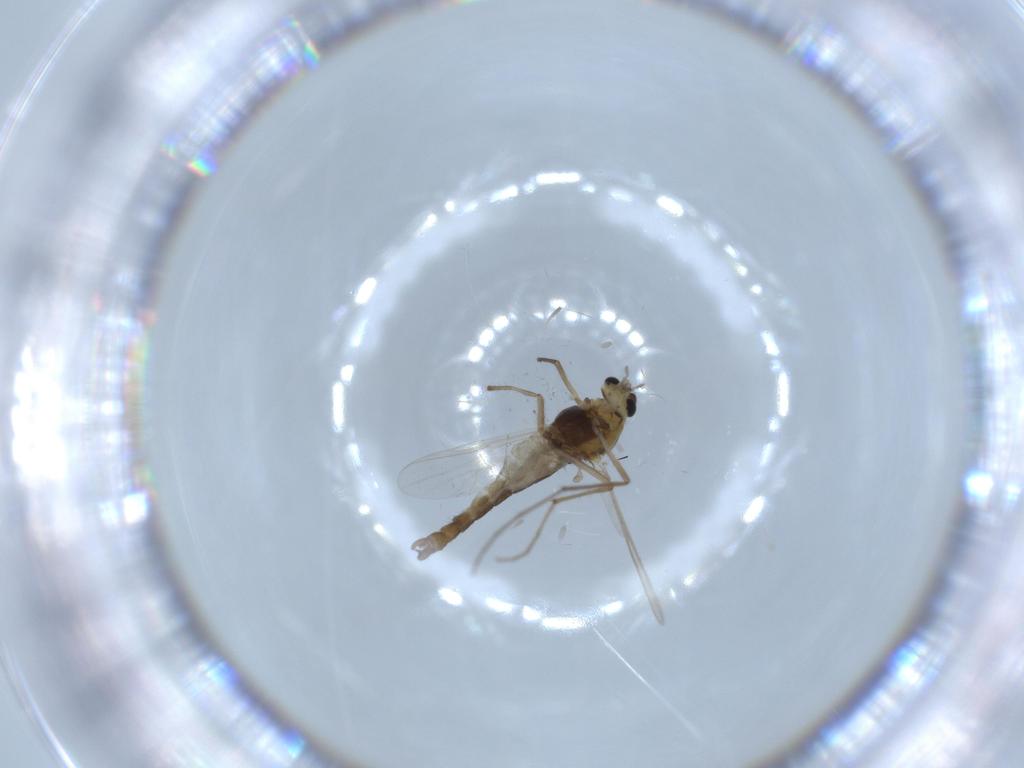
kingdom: Animalia
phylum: Arthropoda
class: Insecta
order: Diptera
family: Chironomidae
